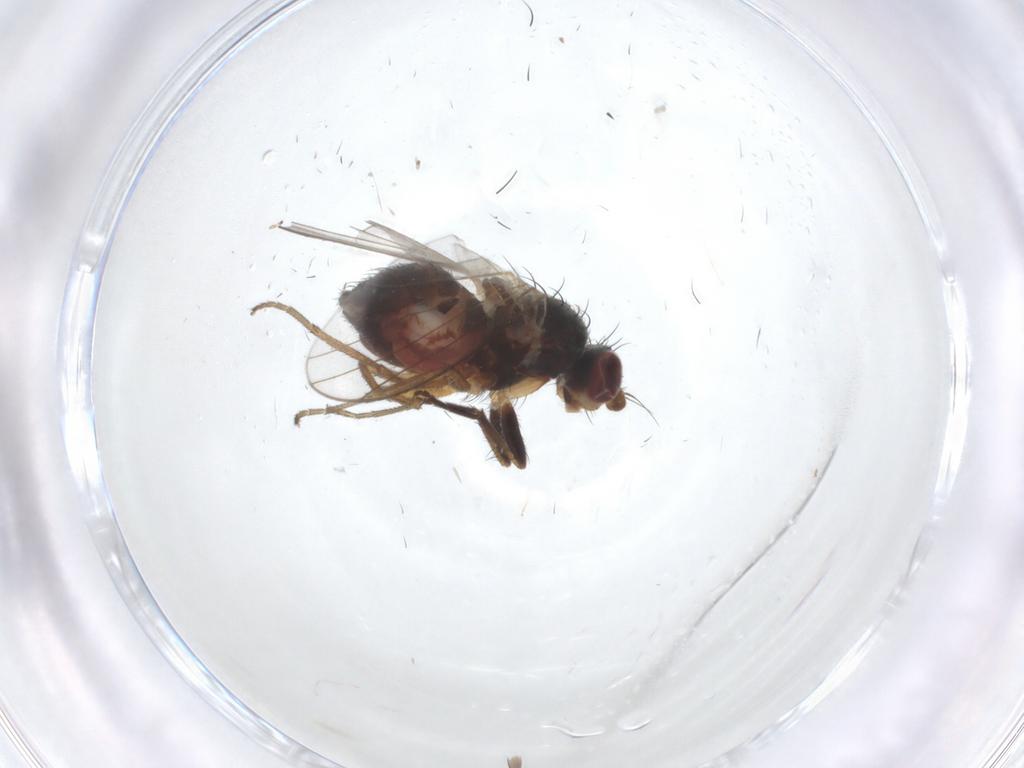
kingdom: Animalia
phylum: Arthropoda
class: Insecta
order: Diptera
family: Heleomyzidae
